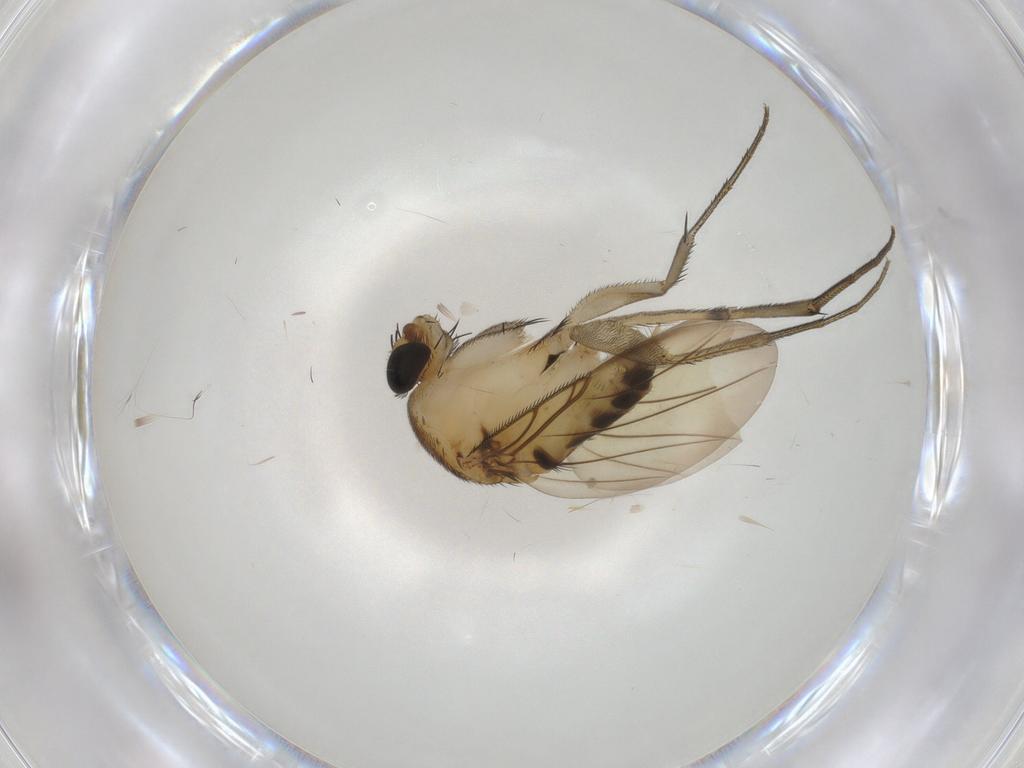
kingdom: Animalia
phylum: Arthropoda
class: Insecta
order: Diptera
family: Phoridae
